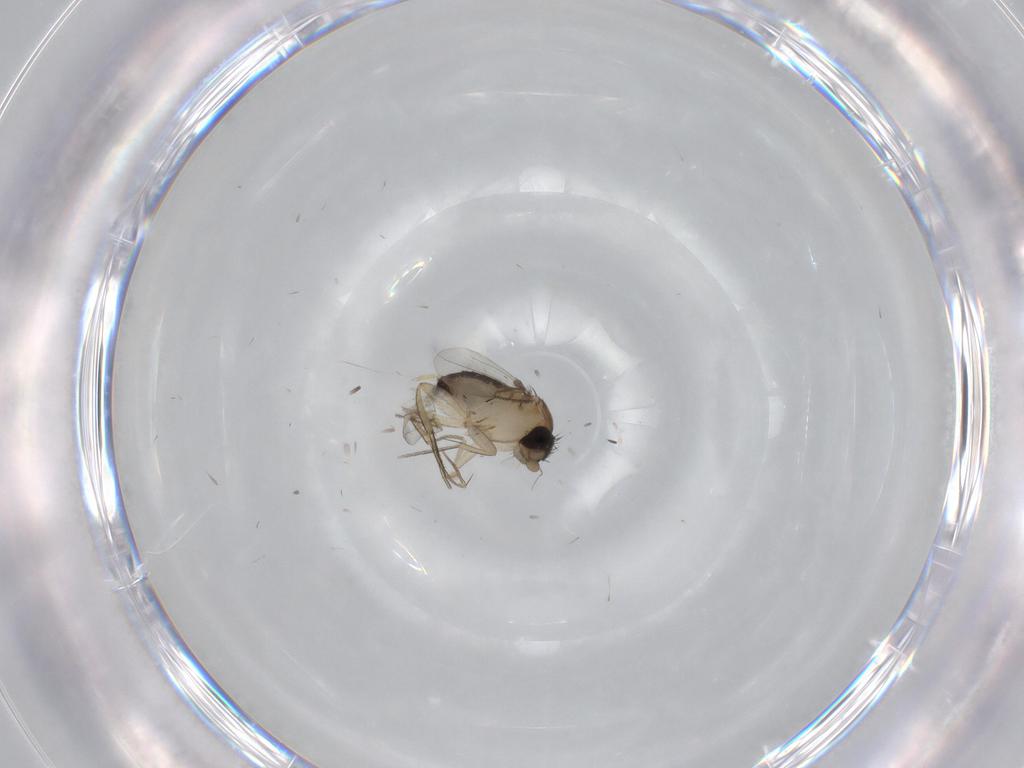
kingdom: Animalia
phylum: Arthropoda
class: Insecta
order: Diptera
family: Phoridae
